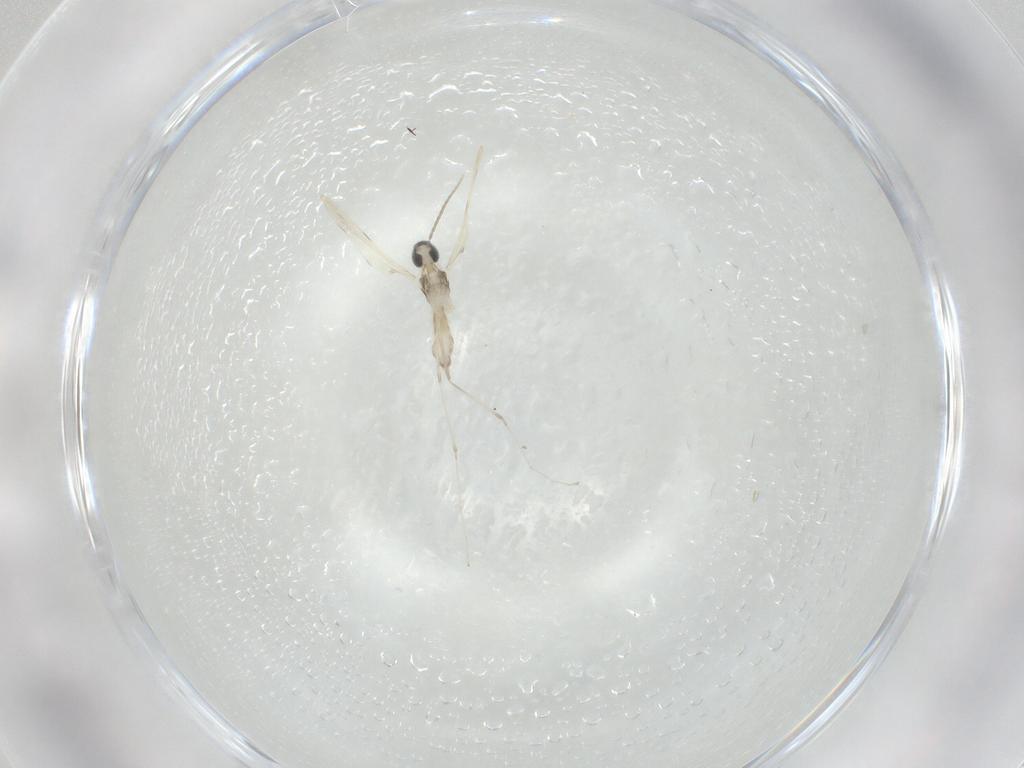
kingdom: Animalia
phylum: Arthropoda
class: Insecta
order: Diptera
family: Cecidomyiidae
